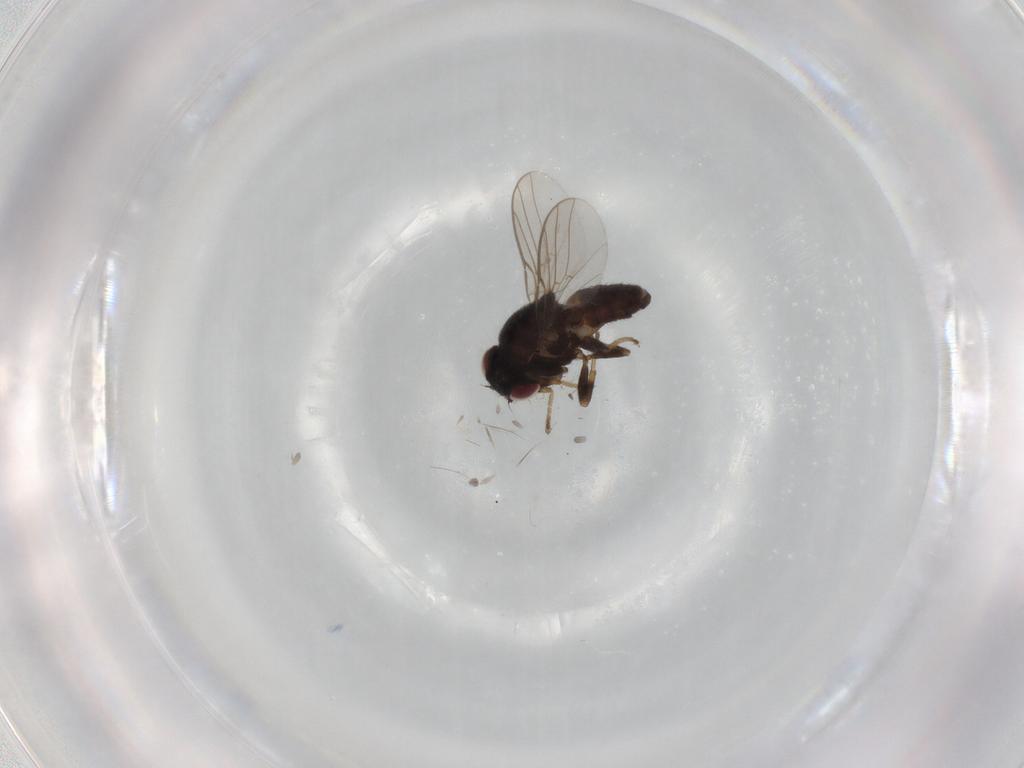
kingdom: Animalia
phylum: Arthropoda
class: Insecta
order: Diptera
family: Chloropidae
